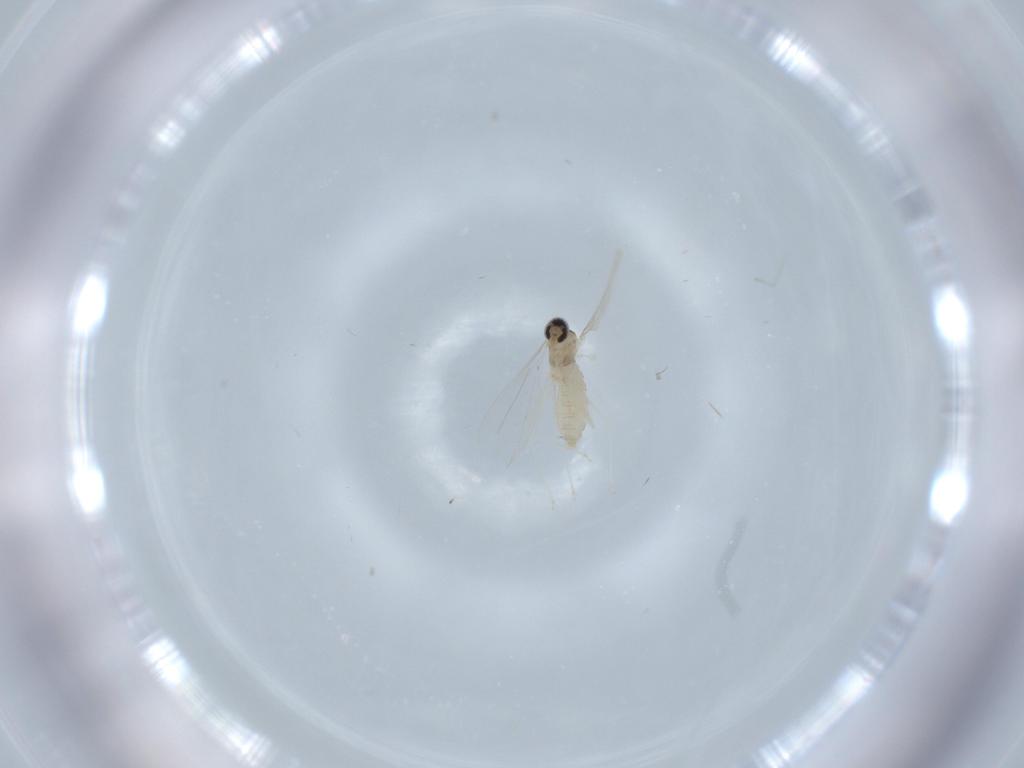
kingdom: Animalia
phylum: Arthropoda
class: Insecta
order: Diptera
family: Cecidomyiidae
